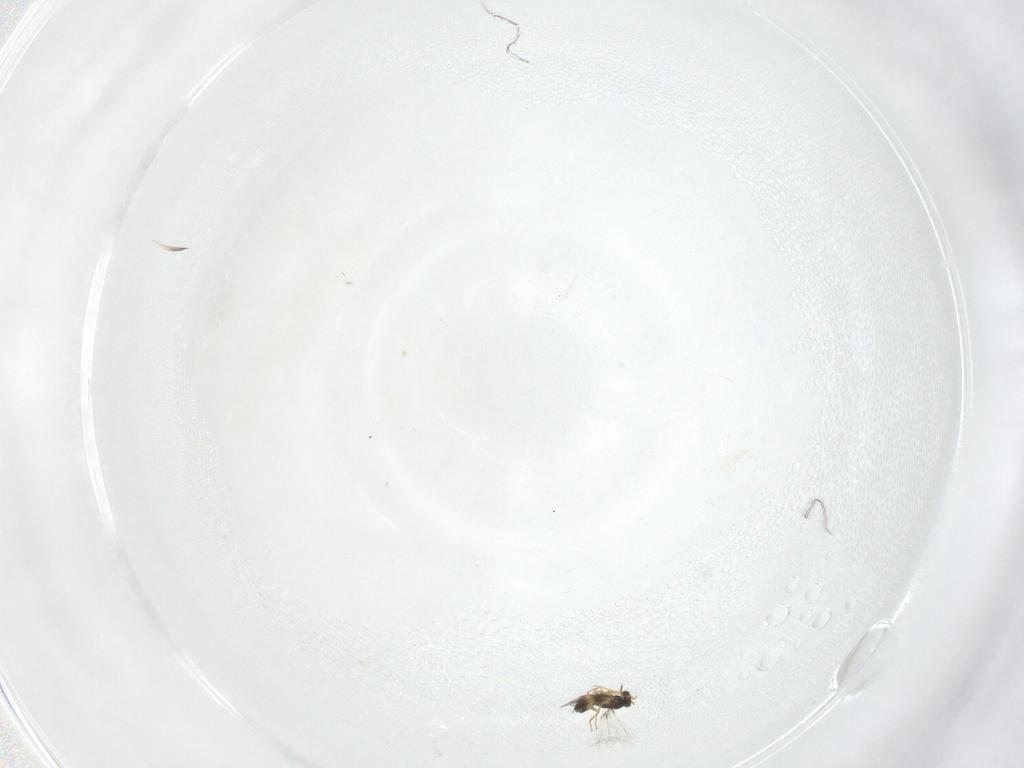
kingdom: Animalia
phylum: Arthropoda
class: Insecta
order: Hymenoptera
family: Mymaridae
